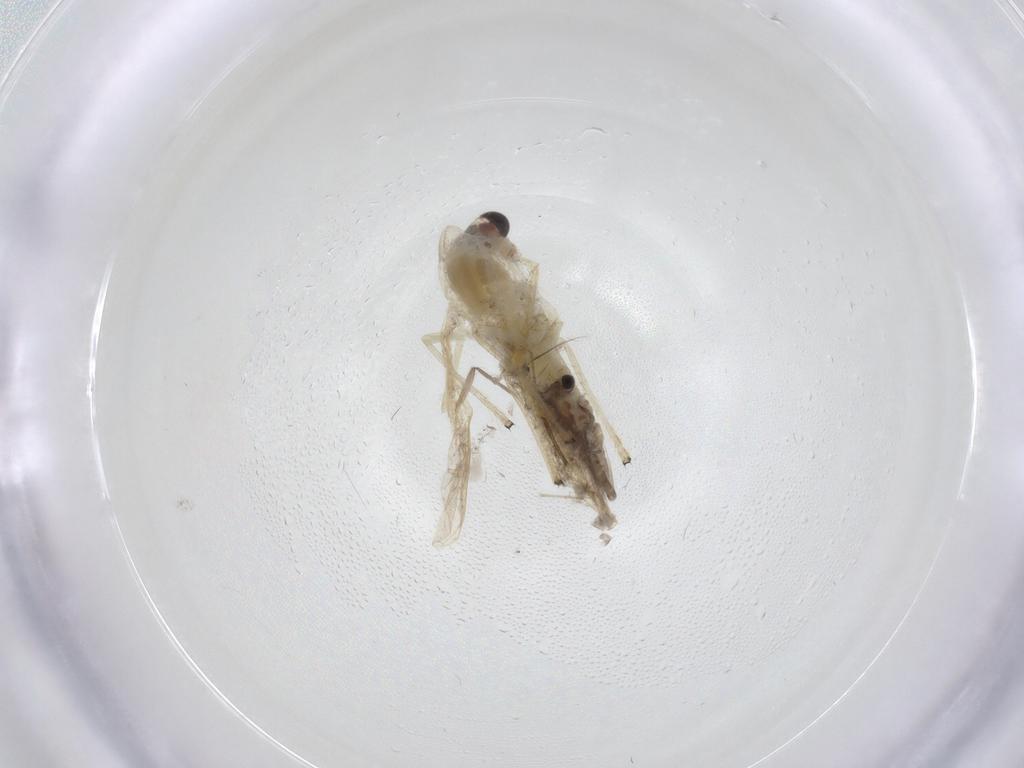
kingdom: Animalia
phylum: Arthropoda
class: Insecta
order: Diptera
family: Chironomidae
